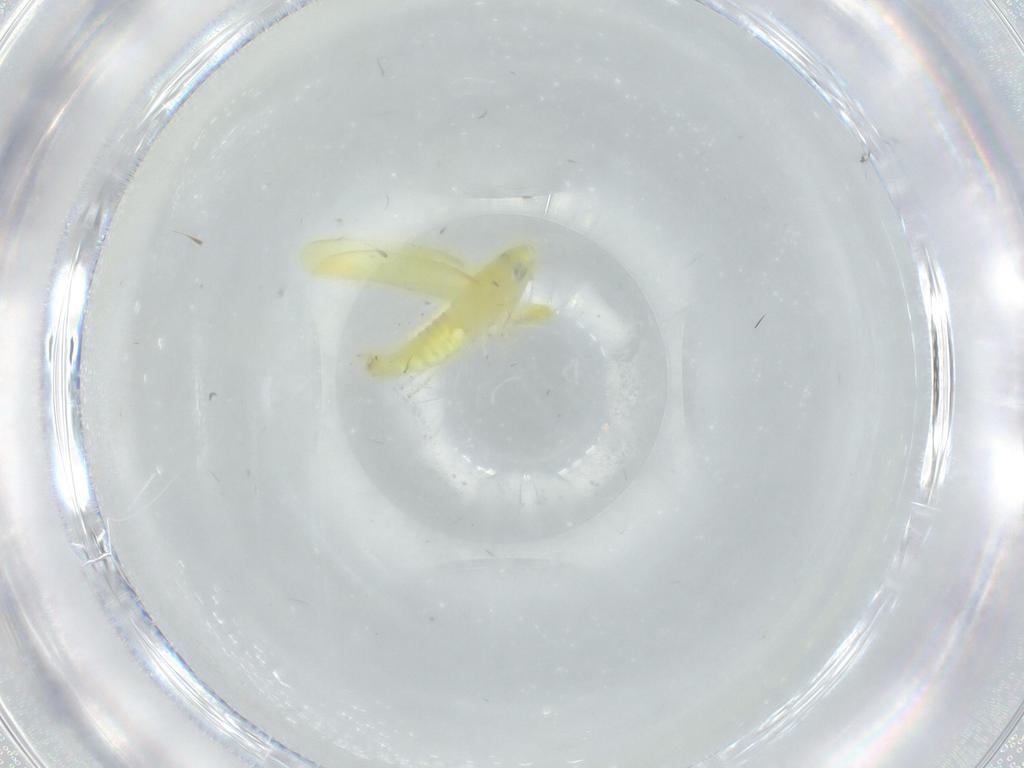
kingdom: Animalia
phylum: Arthropoda
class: Insecta
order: Hemiptera
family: Cicadellidae
